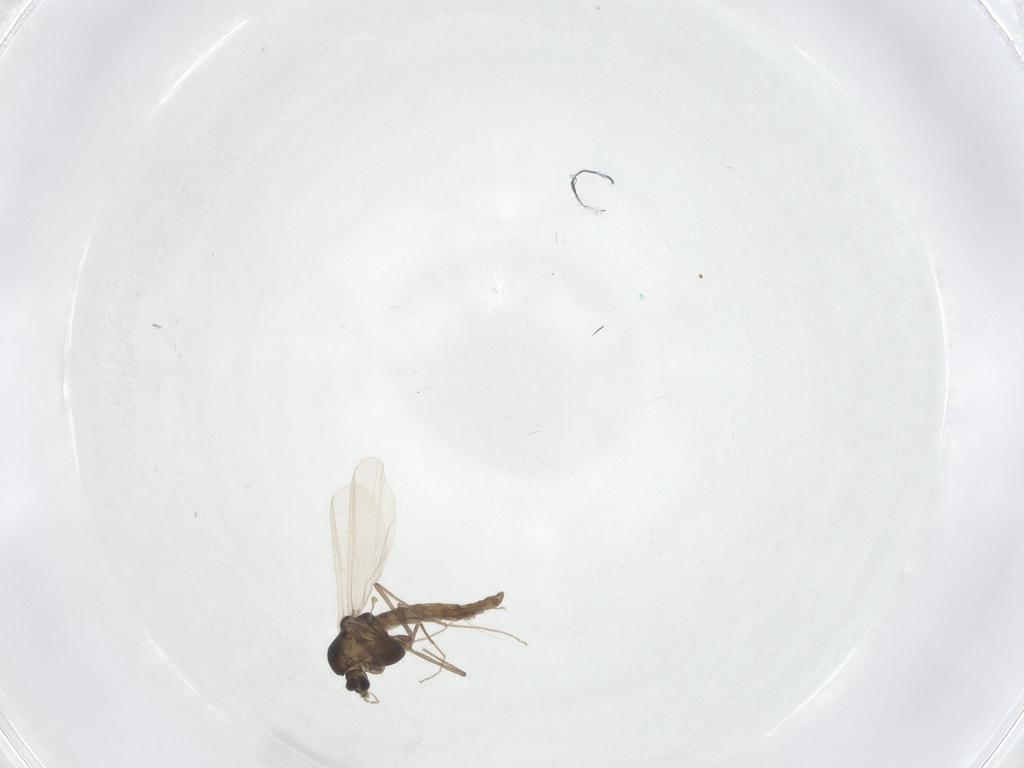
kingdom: Animalia
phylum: Arthropoda
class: Insecta
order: Diptera
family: Chironomidae
